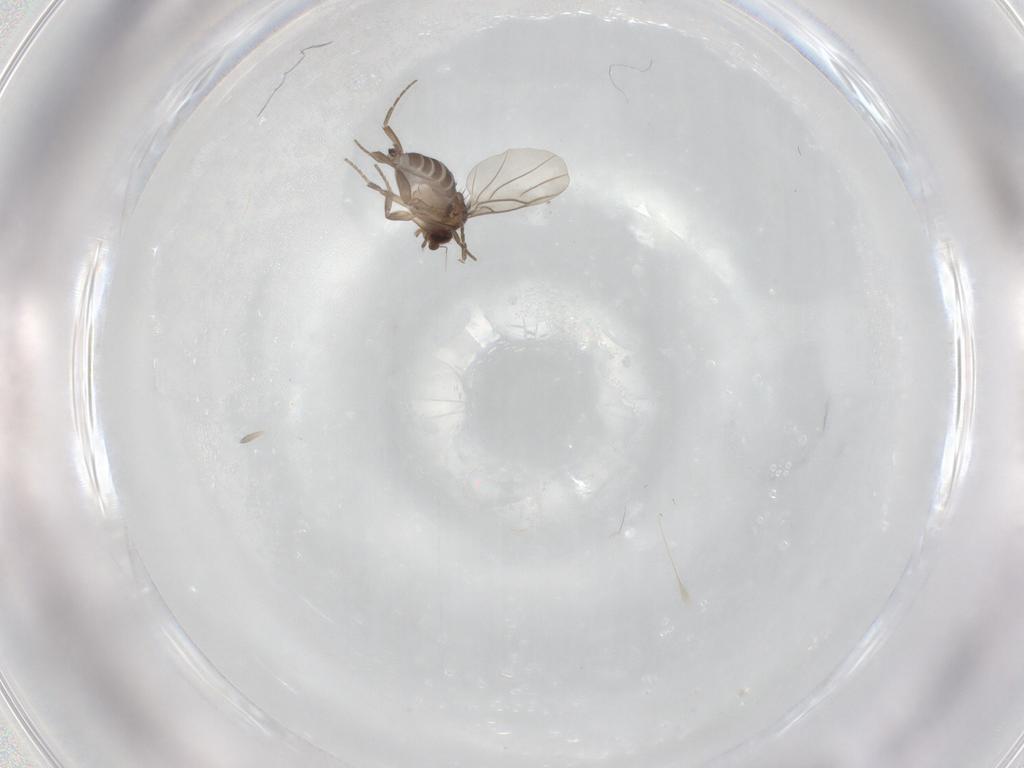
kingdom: Animalia
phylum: Arthropoda
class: Insecta
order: Diptera
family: Phoridae
